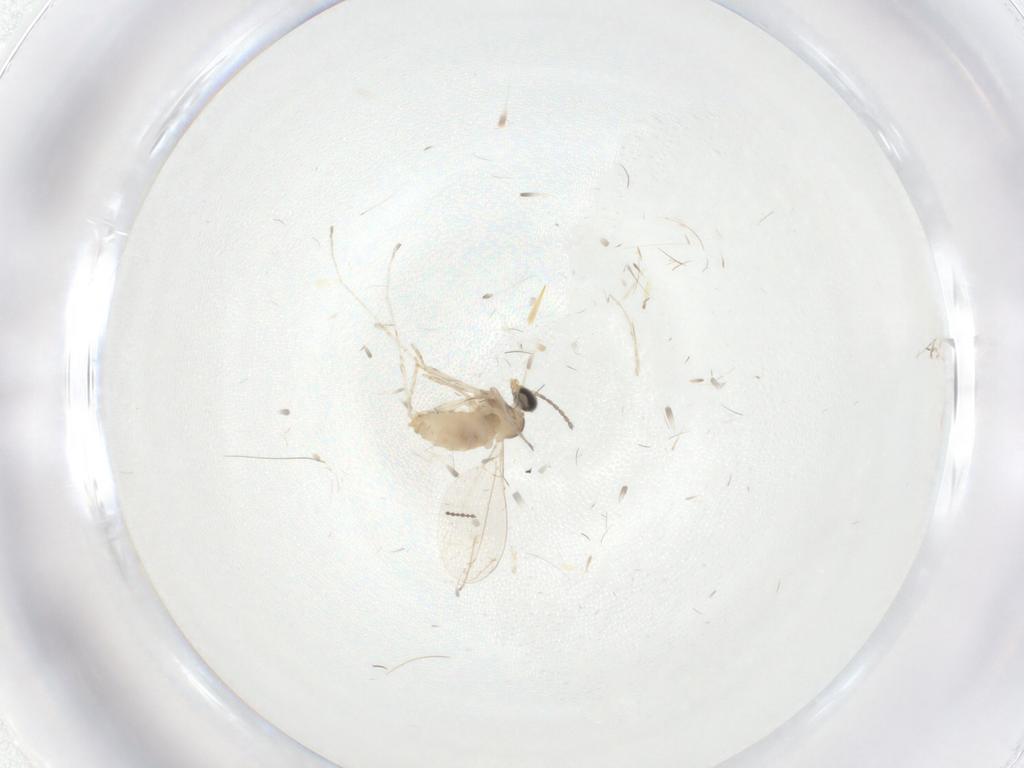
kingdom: Animalia
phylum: Arthropoda
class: Insecta
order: Diptera
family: Cecidomyiidae
